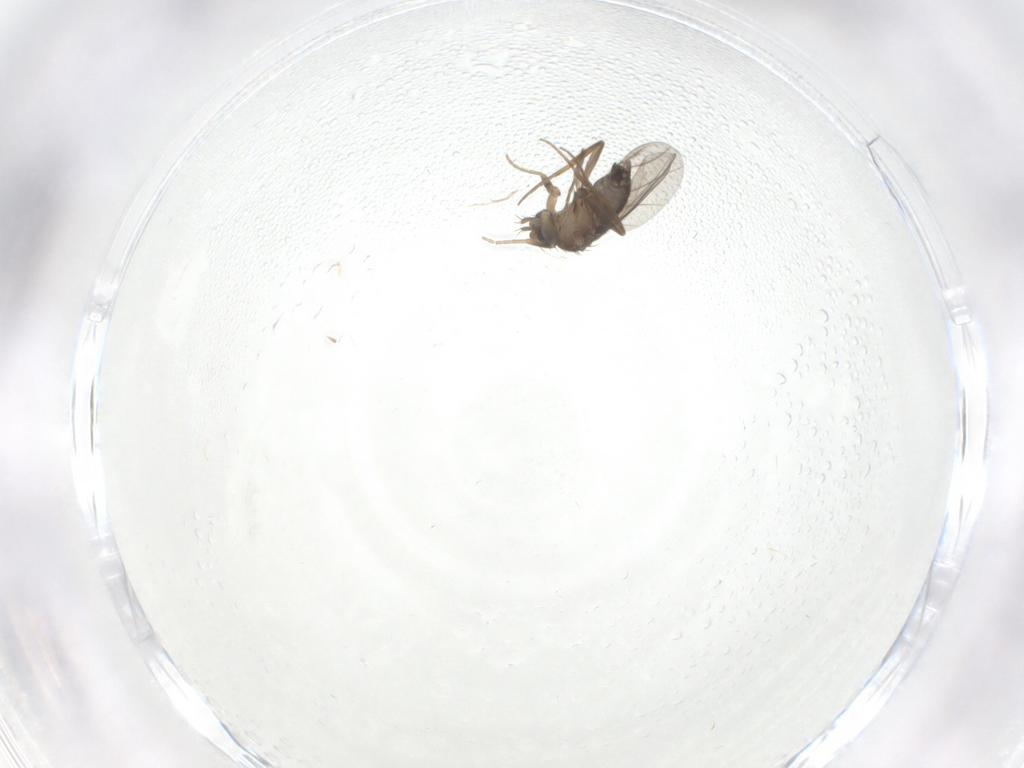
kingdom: Animalia
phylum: Arthropoda
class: Insecta
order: Diptera
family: Phoridae
